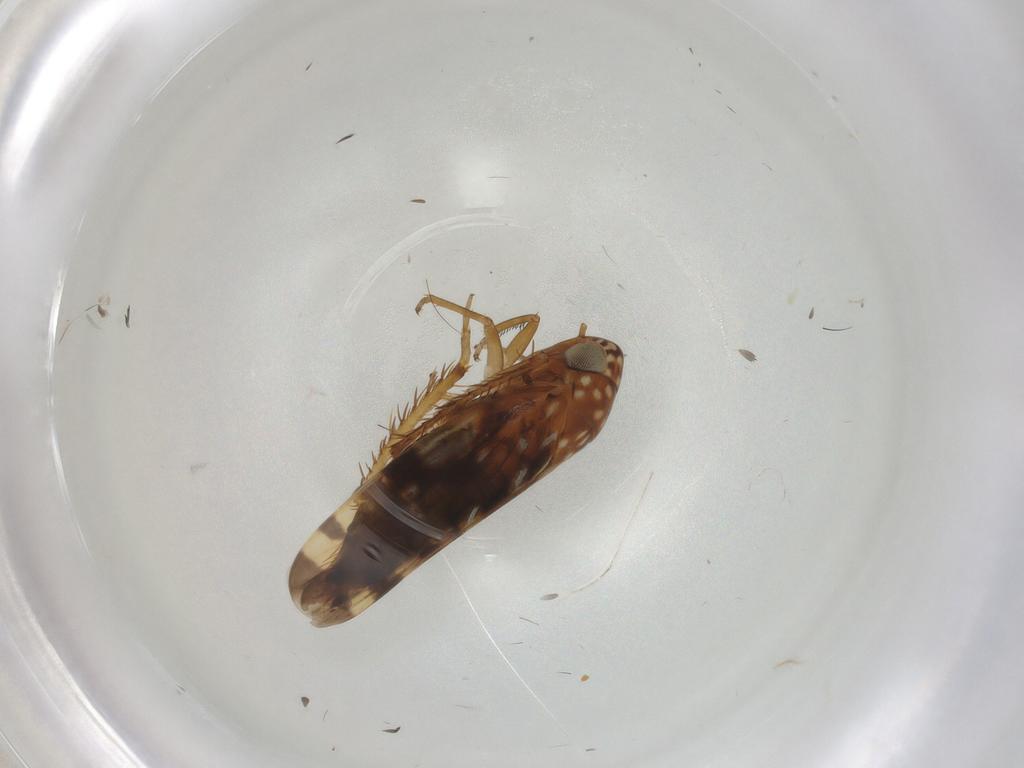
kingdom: Animalia
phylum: Arthropoda
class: Insecta
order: Hemiptera
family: Cicadellidae
